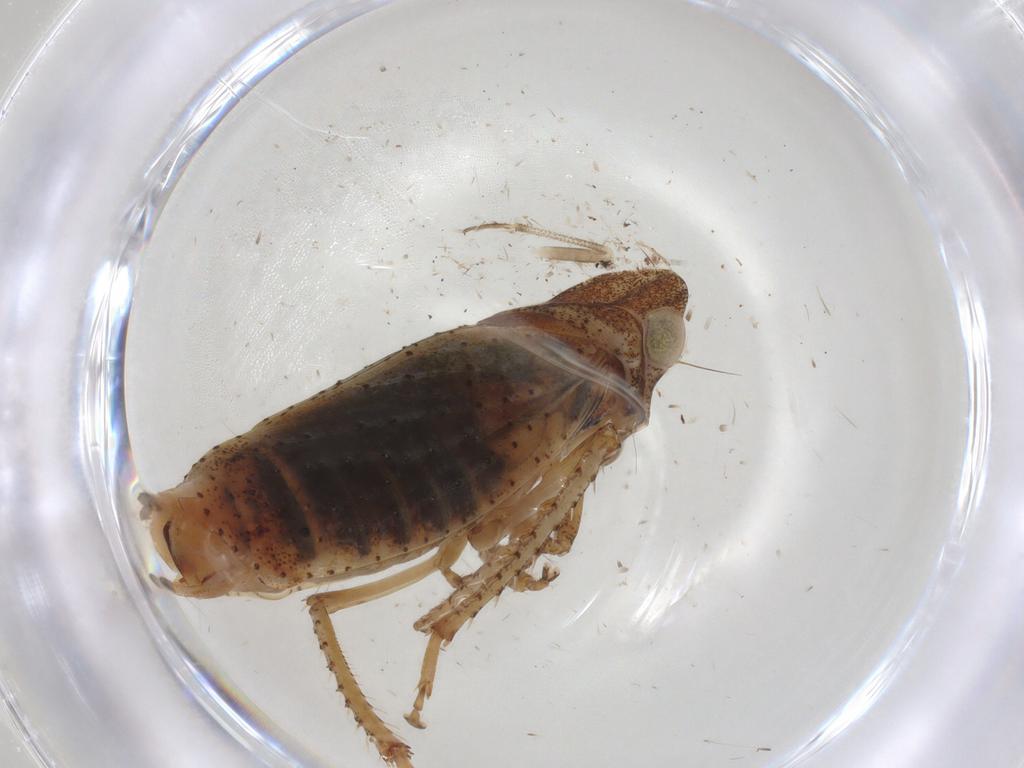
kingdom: Animalia
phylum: Arthropoda
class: Insecta
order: Hemiptera
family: Cicadellidae
